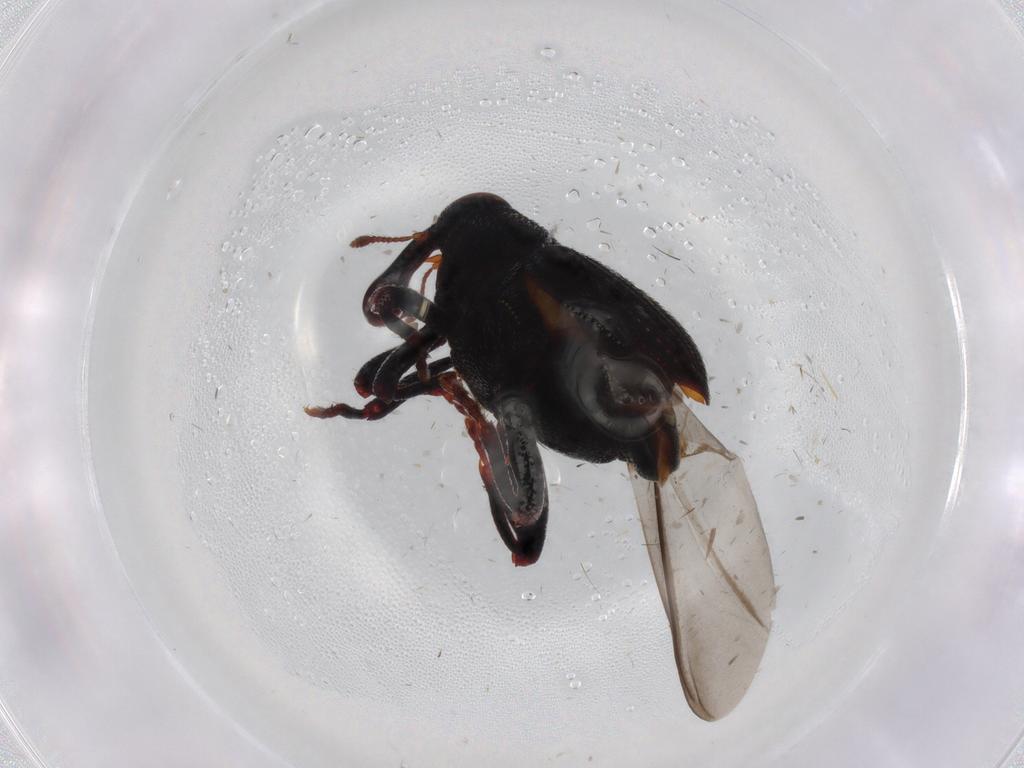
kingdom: Animalia
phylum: Arthropoda
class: Insecta
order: Coleoptera
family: Curculionidae
